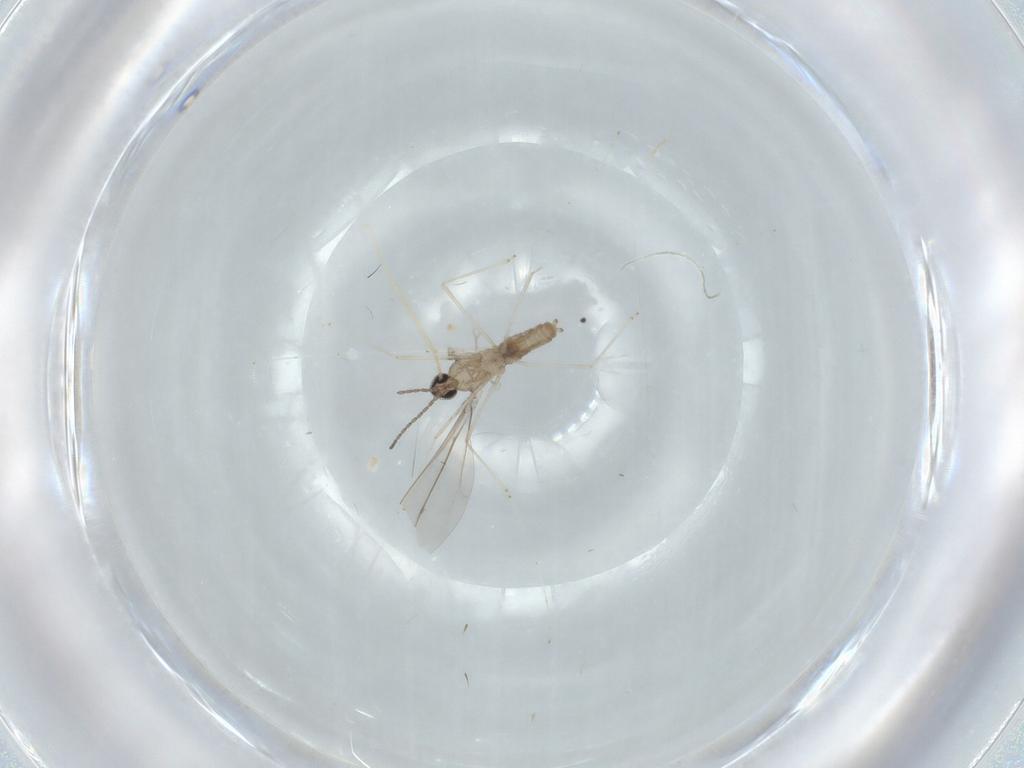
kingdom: Animalia
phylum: Arthropoda
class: Insecta
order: Diptera
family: Cecidomyiidae
